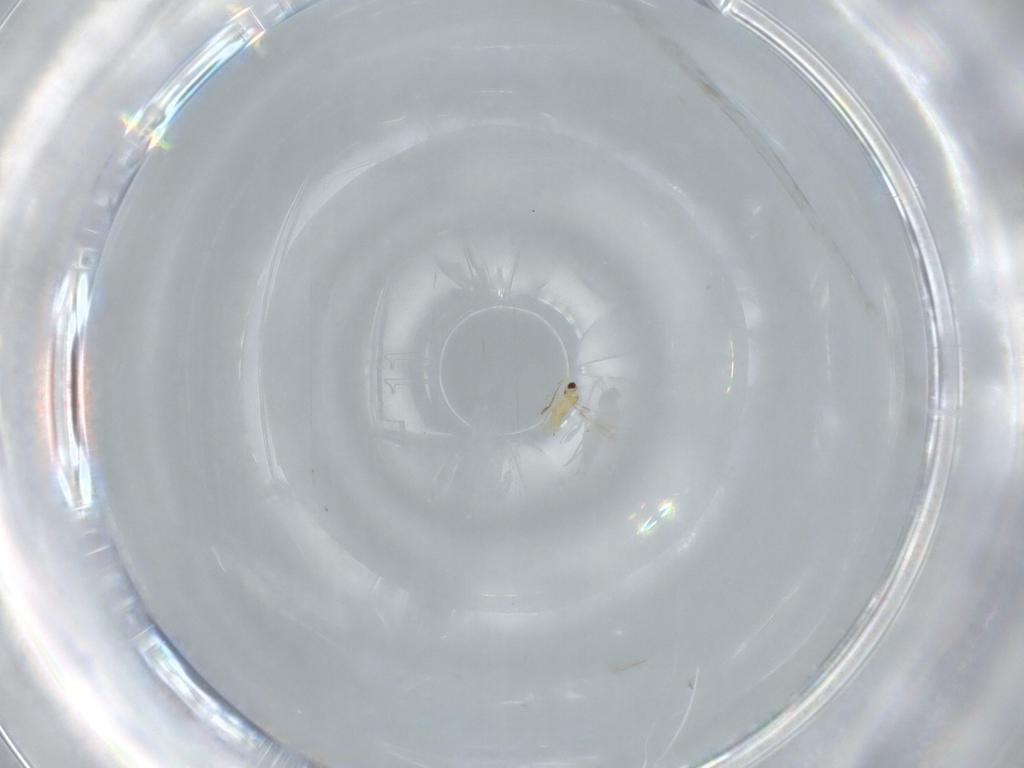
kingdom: Animalia
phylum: Arthropoda
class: Insecta
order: Hymenoptera
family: Mymaridae
